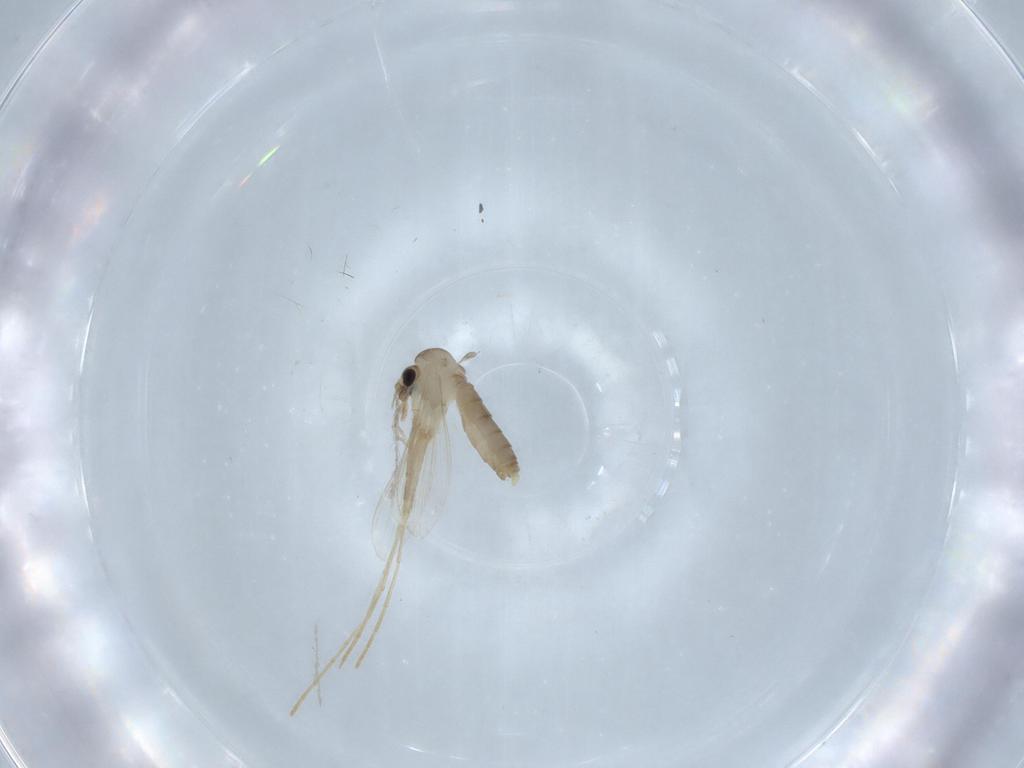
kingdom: Animalia
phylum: Arthropoda
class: Insecta
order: Diptera
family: Psychodidae
